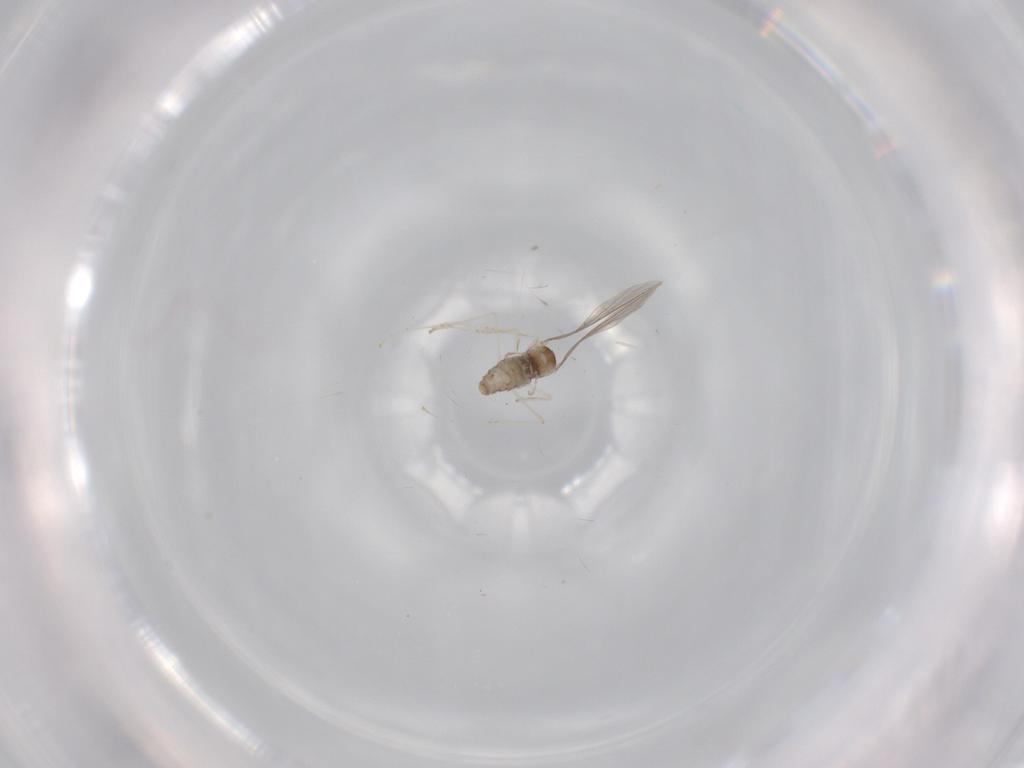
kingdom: Animalia
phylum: Arthropoda
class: Insecta
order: Diptera
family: Cecidomyiidae
